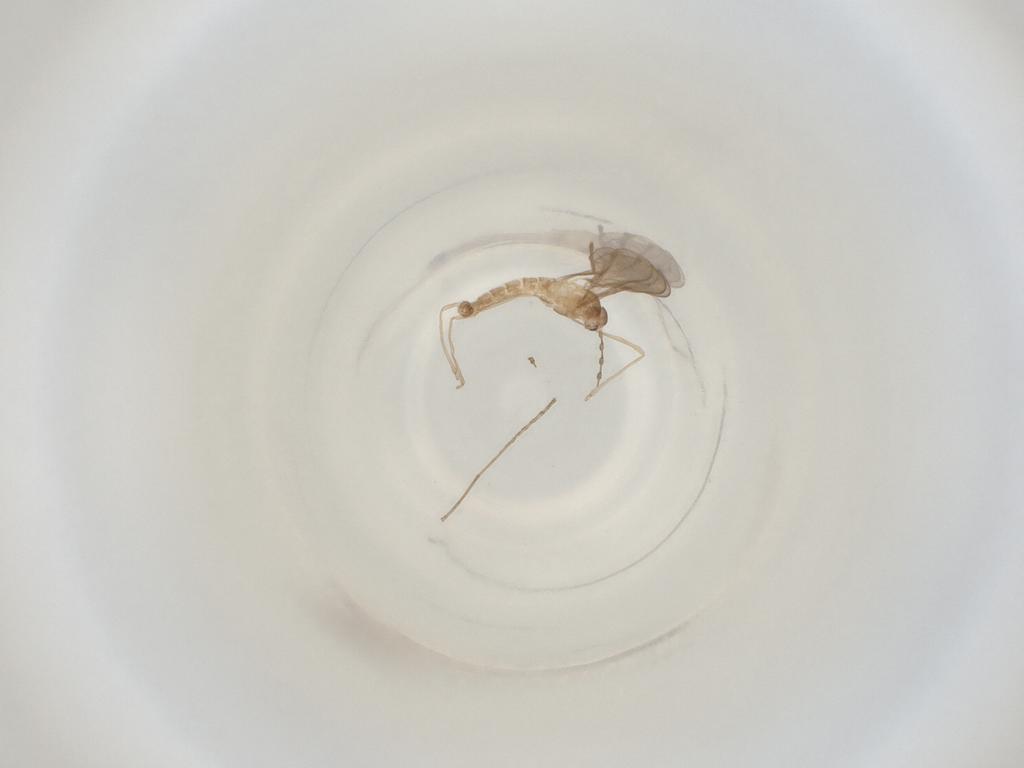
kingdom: Animalia
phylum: Arthropoda
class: Insecta
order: Diptera
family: Cecidomyiidae
